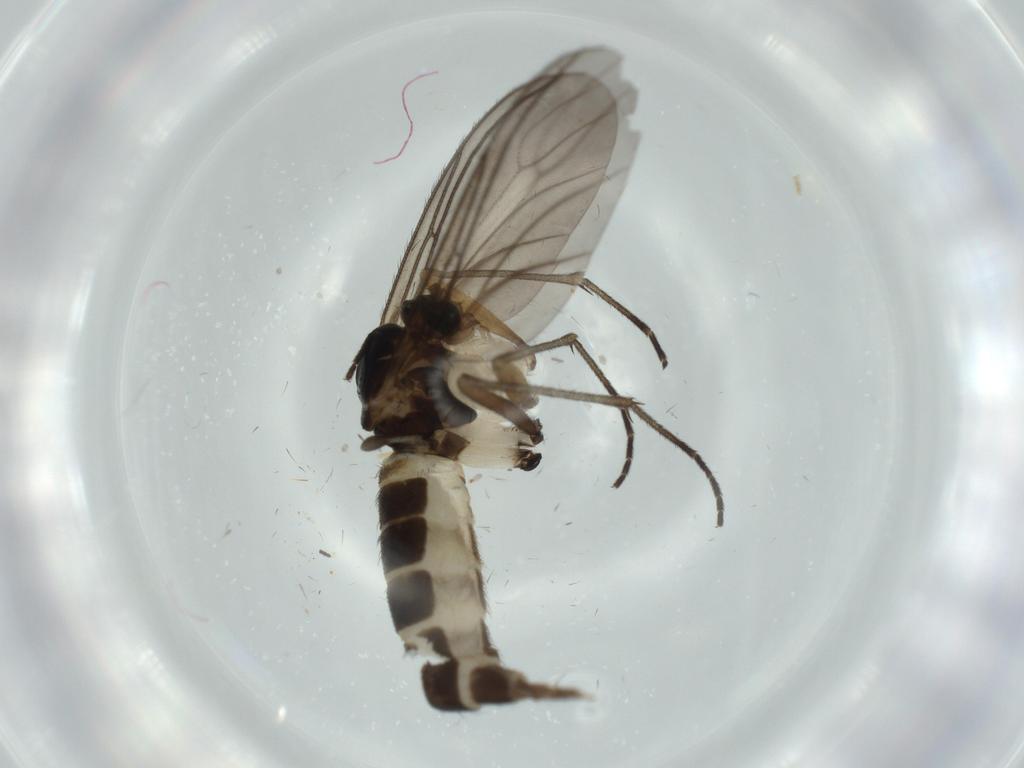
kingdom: Animalia
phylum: Arthropoda
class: Insecta
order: Diptera
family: Sciaridae
